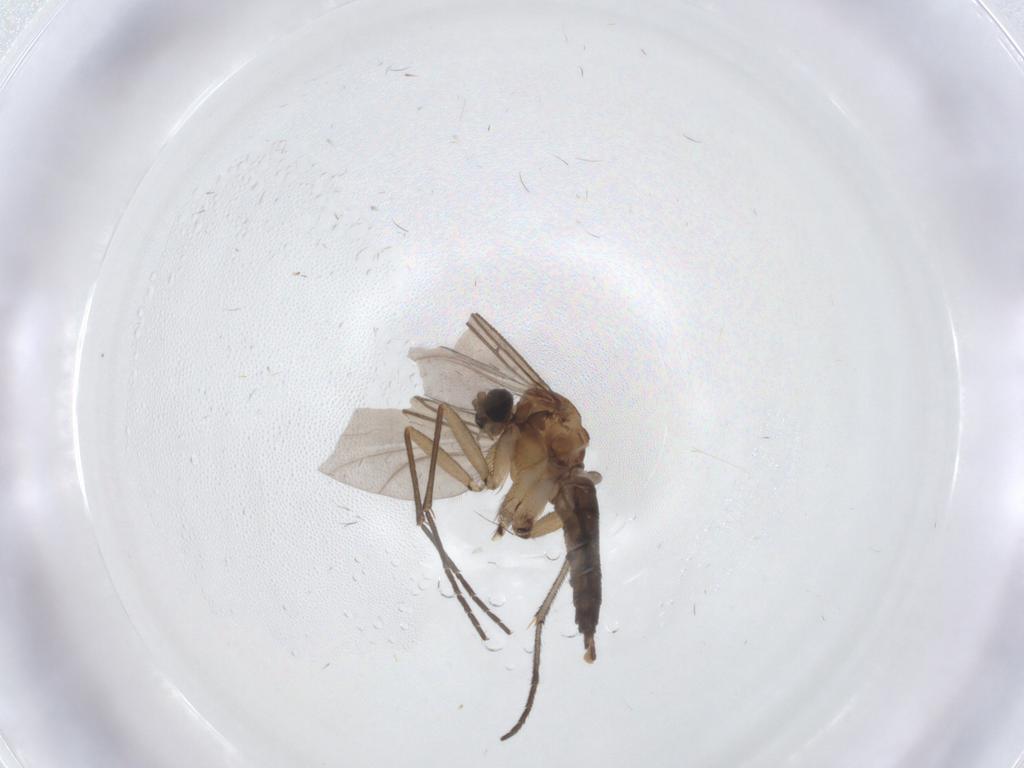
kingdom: Animalia
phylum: Arthropoda
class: Insecta
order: Diptera
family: Sciaridae
